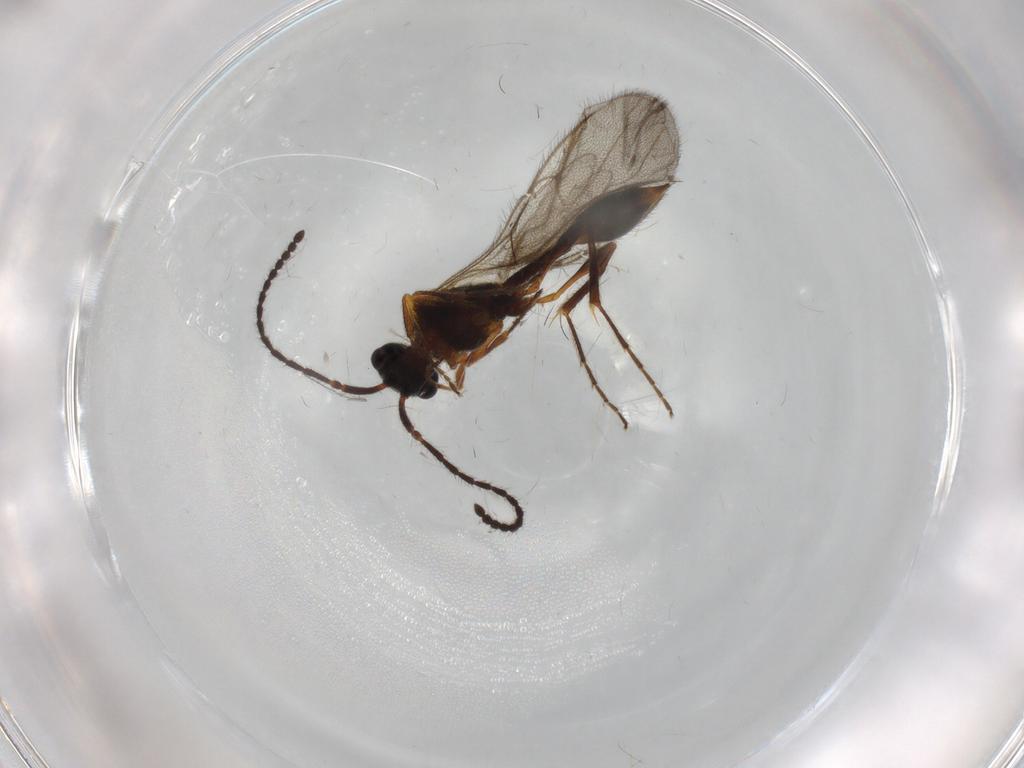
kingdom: Animalia
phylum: Arthropoda
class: Insecta
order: Hymenoptera
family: Diapriidae
